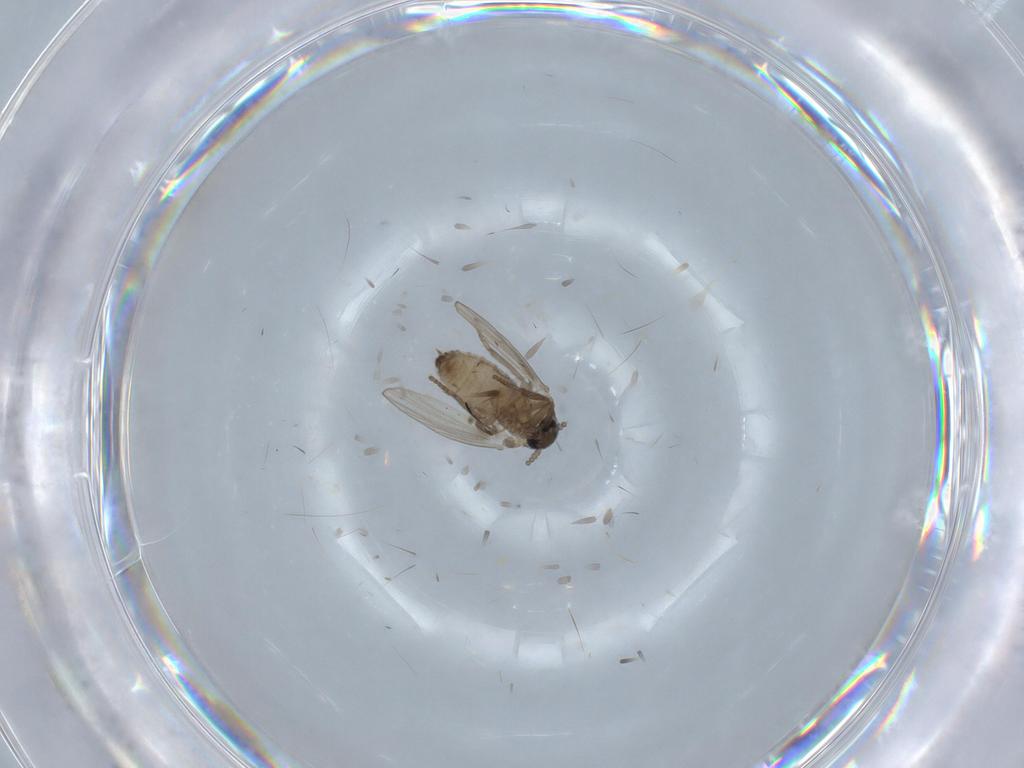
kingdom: Animalia
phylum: Arthropoda
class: Insecta
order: Diptera
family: Psychodidae
